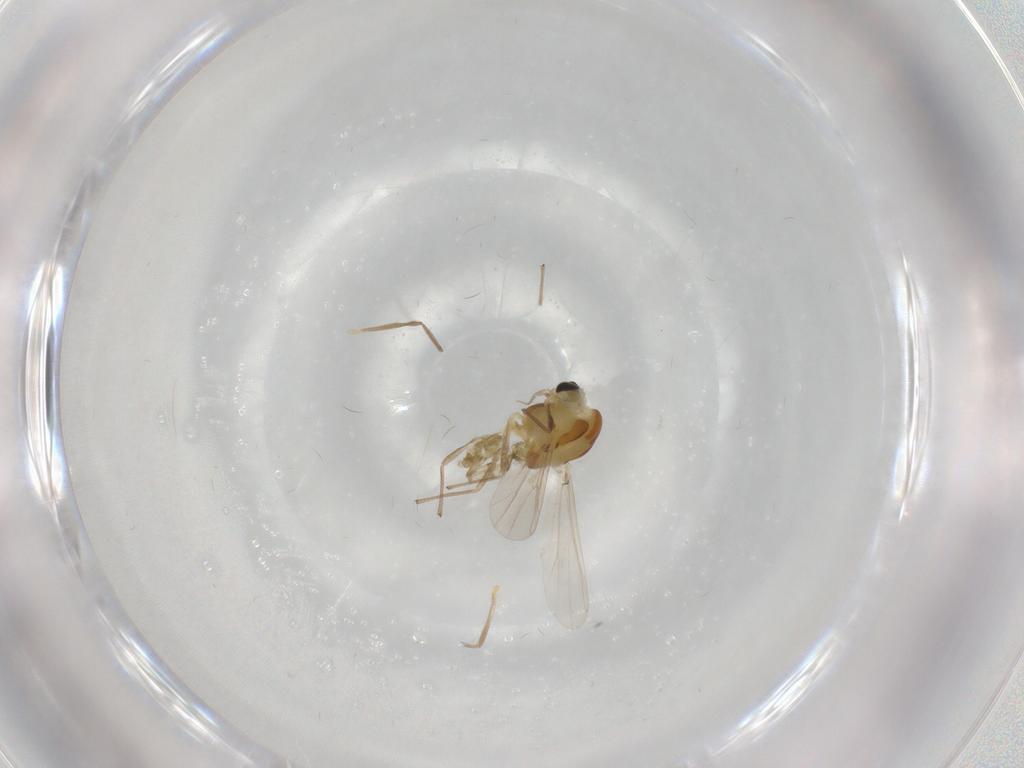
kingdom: Animalia
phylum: Arthropoda
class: Insecta
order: Diptera
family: Chironomidae
